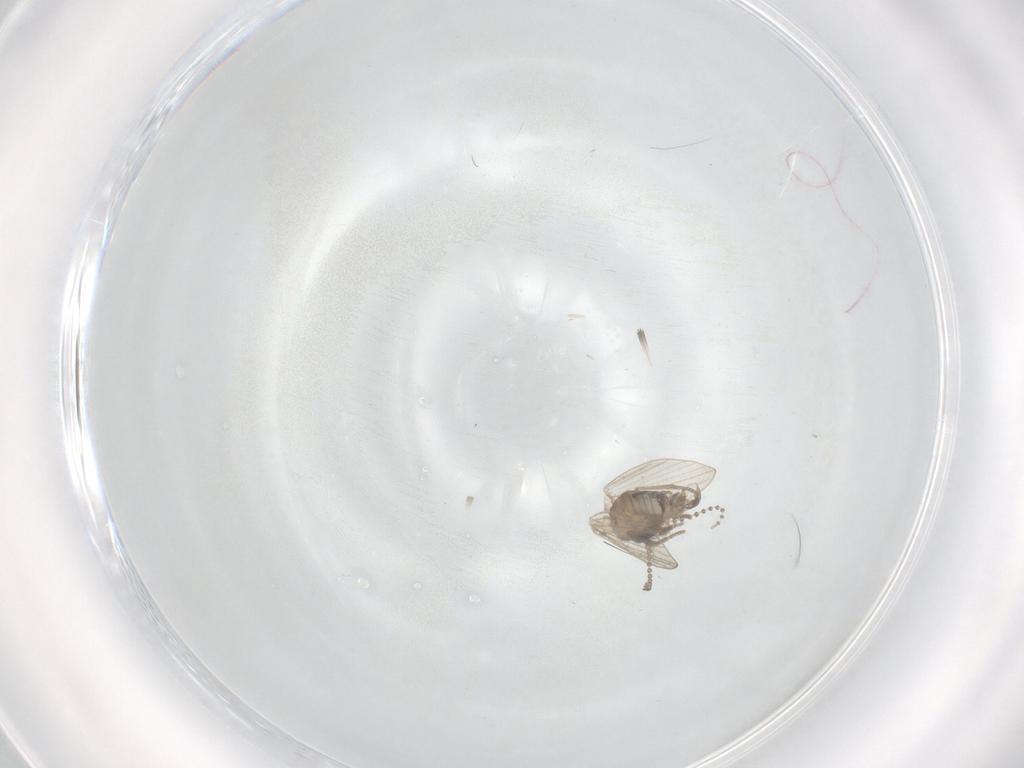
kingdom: Animalia
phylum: Arthropoda
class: Insecta
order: Diptera
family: Psychodidae
